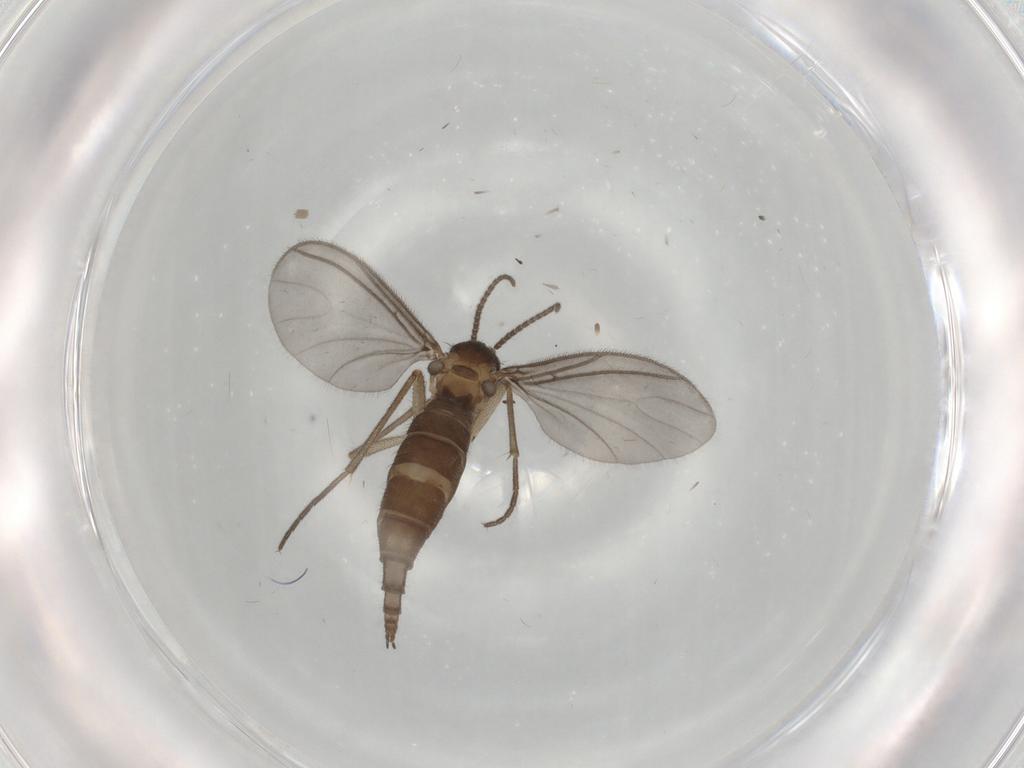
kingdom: Animalia
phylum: Arthropoda
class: Insecta
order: Diptera
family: Sciaridae
